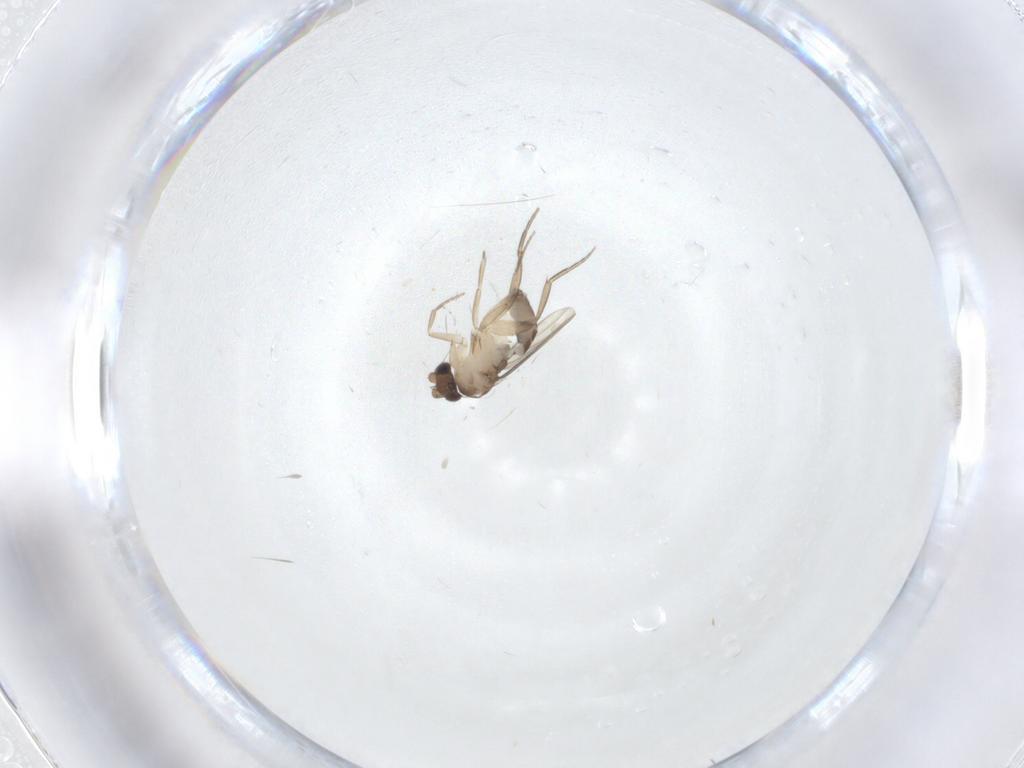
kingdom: Animalia
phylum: Arthropoda
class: Insecta
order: Diptera
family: Phoridae
